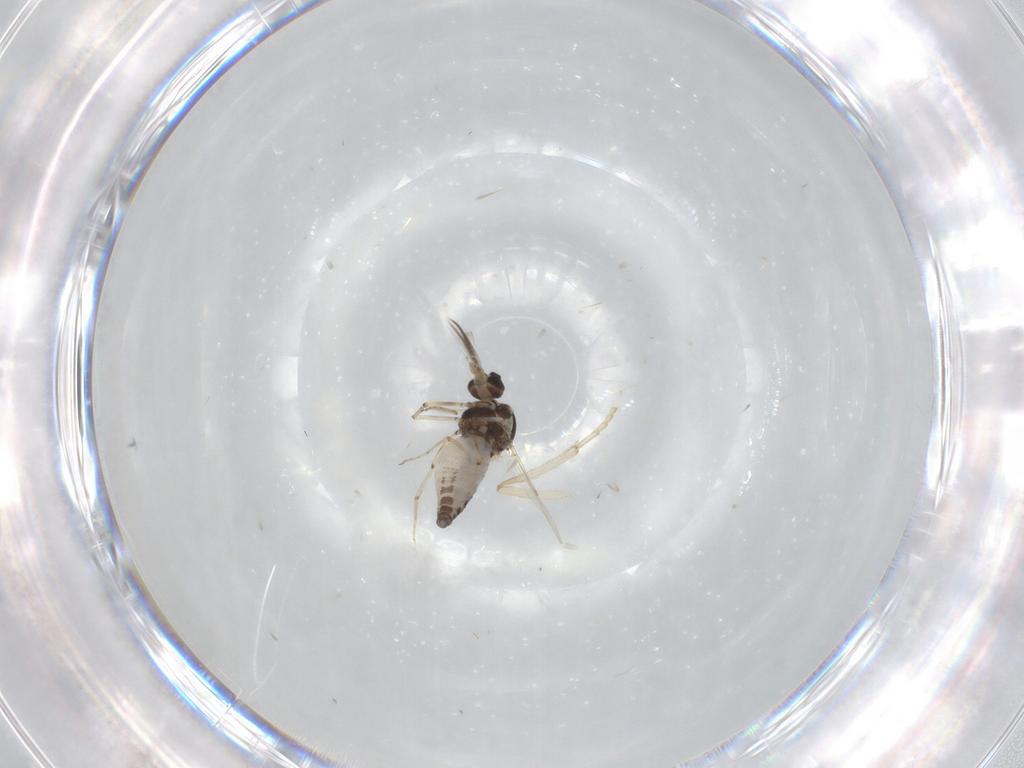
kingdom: Animalia
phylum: Arthropoda
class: Insecta
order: Diptera
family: Ceratopogonidae
